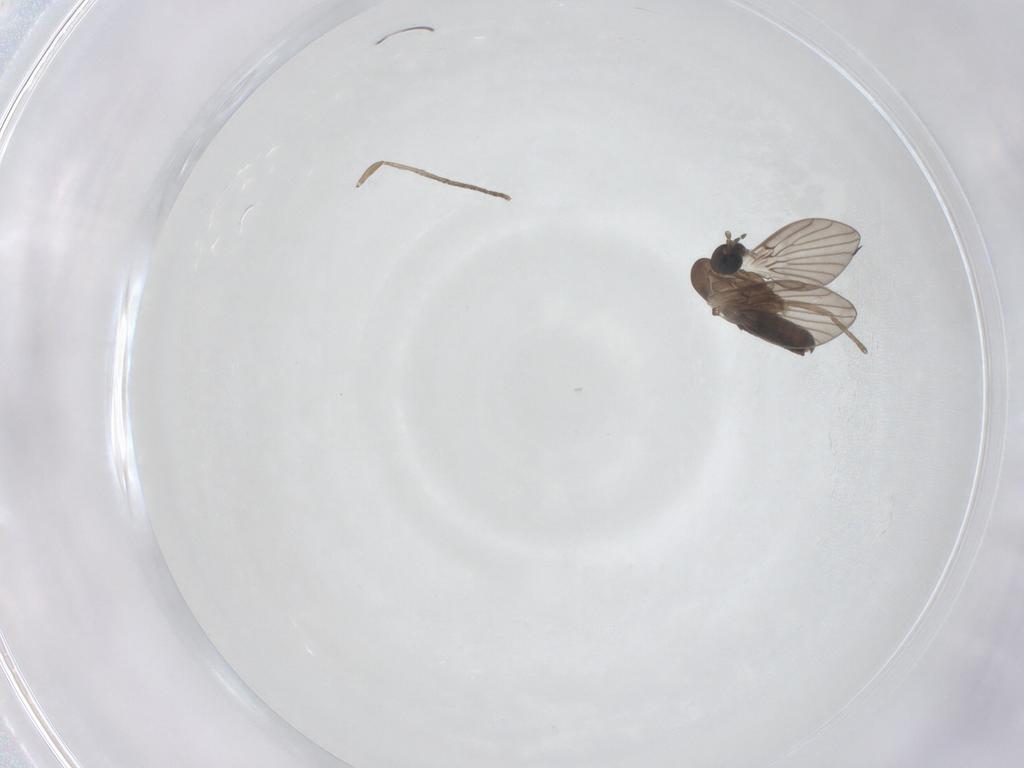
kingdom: Animalia
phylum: Arthropoda
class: Insecta
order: Diptera
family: Psychodidae
